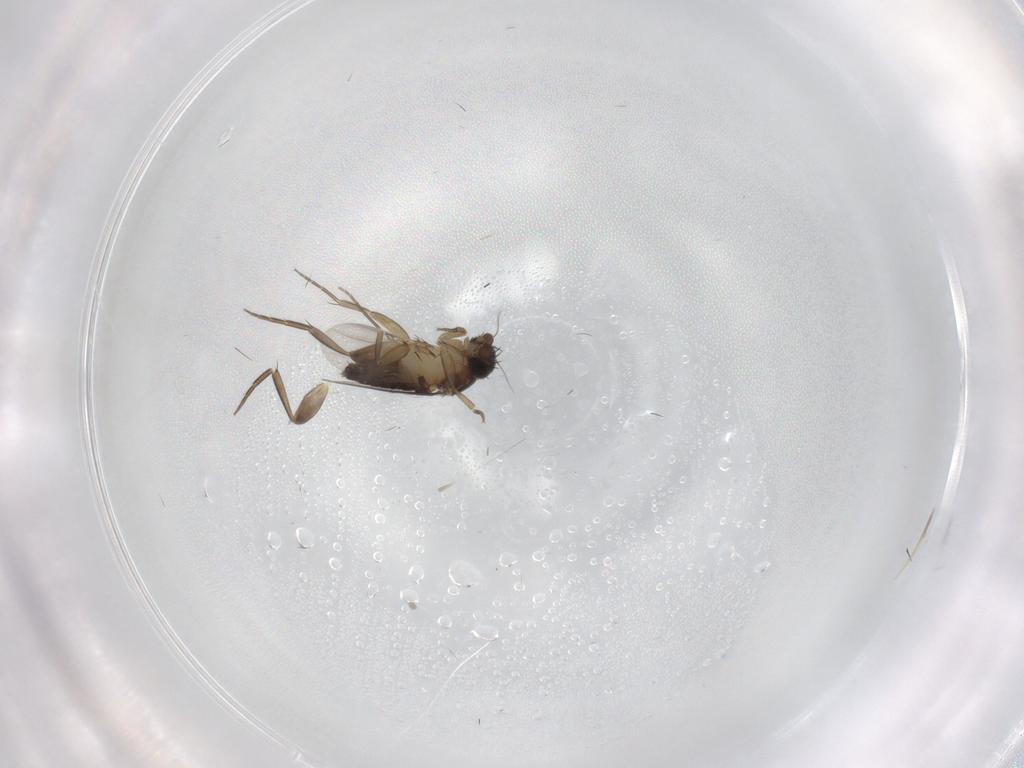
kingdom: Animalia
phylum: Arthropoda
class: Insecta
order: Diptera
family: Phoridae
